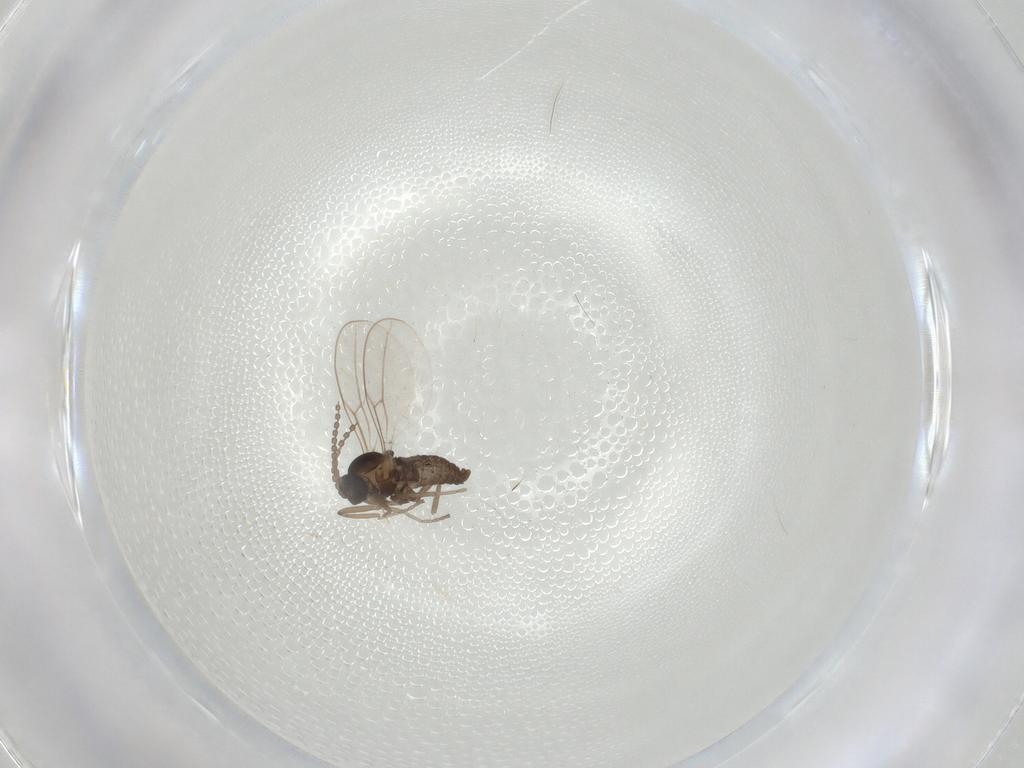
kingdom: Animalia
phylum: Arthropoda
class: Insecta
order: Diptera
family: Cecidomyiidae
